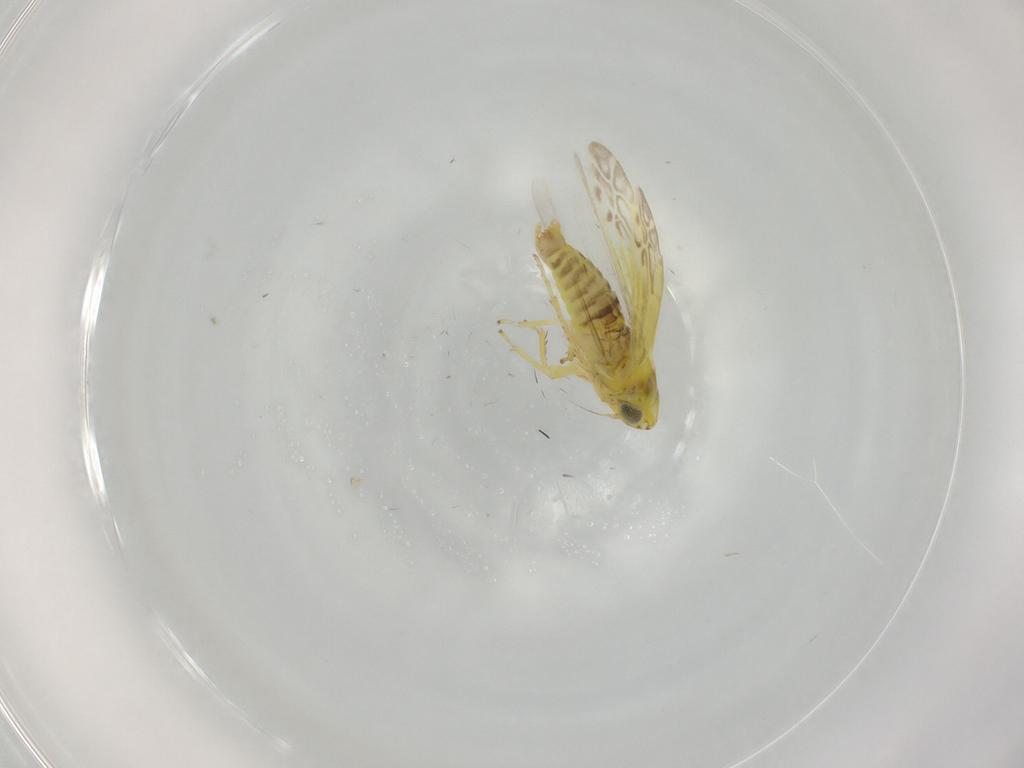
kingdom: Animalia
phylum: Arthropoda
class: Insecta
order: Hemiptera
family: Cicadellidae
